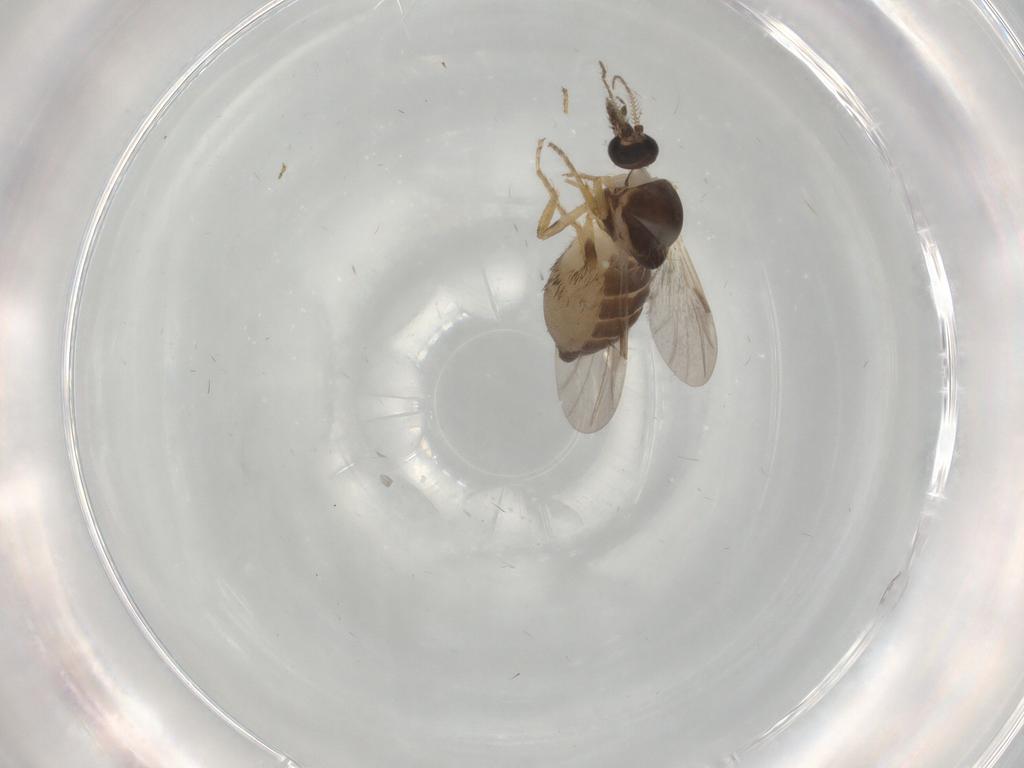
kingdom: Animalia
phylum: Arthropoda
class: Insecta
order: Diptera
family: Ceratopogonidae
